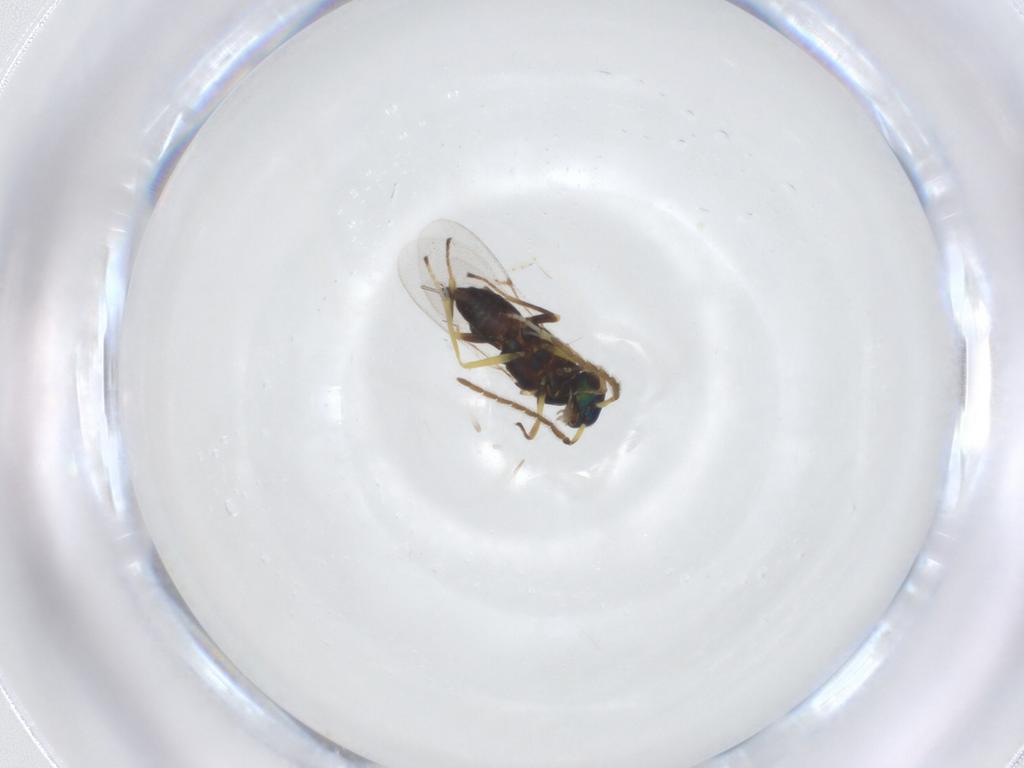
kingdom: Animalia
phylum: Arthropoda
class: Insecta
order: Hymenoptera
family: Encyrtidae
